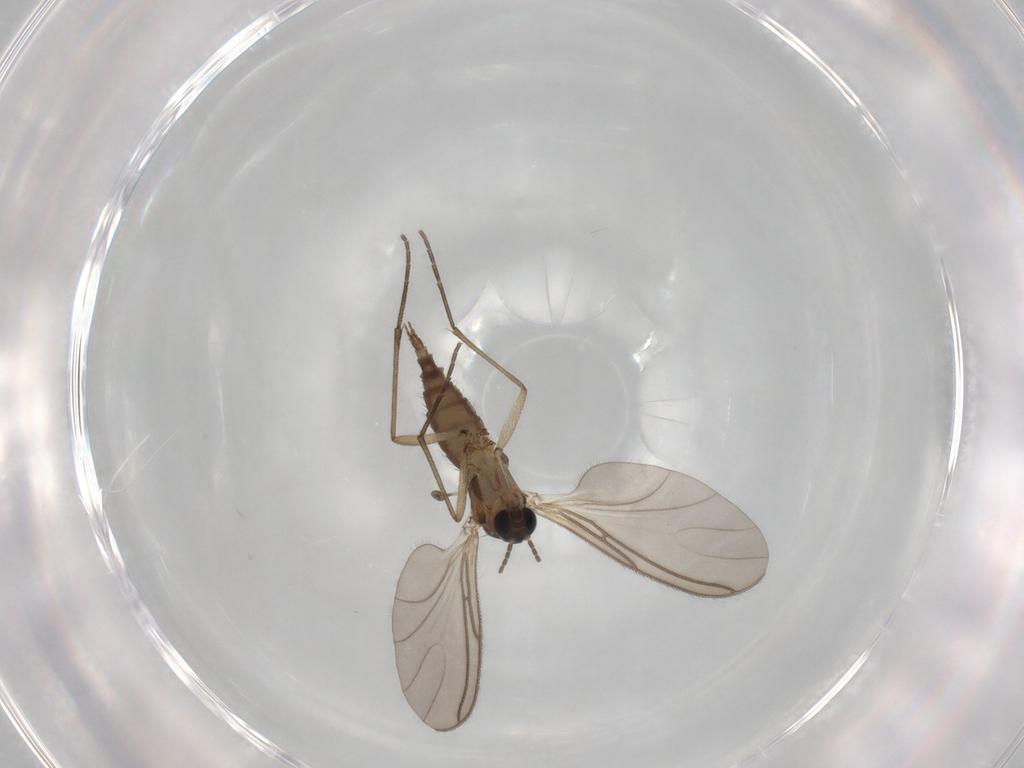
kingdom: Animalia
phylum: Arthropoda
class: Insecta
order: Diptera
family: Sciaridae
